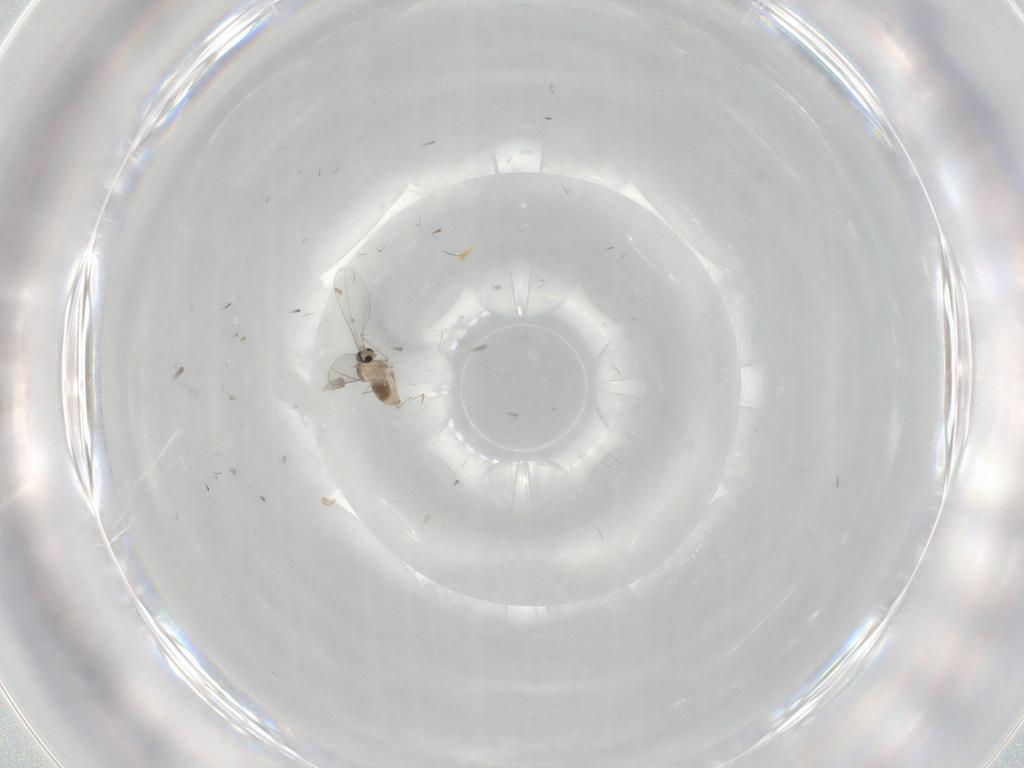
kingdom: Animalia
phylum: Arthropoda
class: Insecta
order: Diptera
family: Cecidomyiidae
